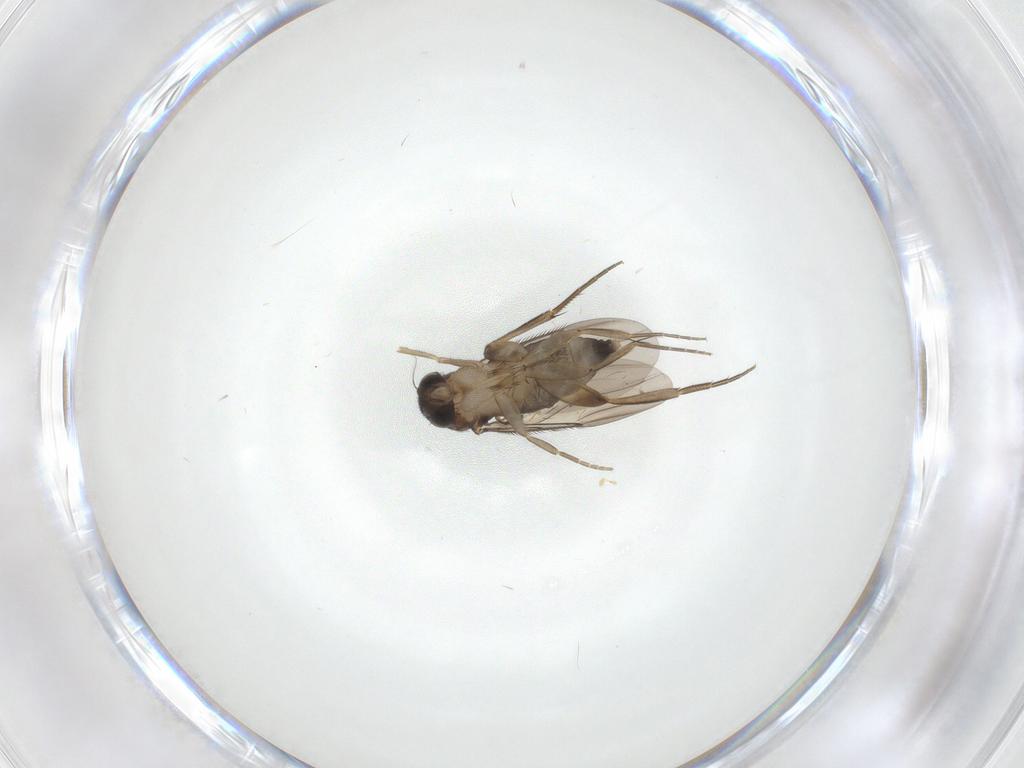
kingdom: Animalia
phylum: Arthropoda
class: Insecta
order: Diptera
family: Phoridae
